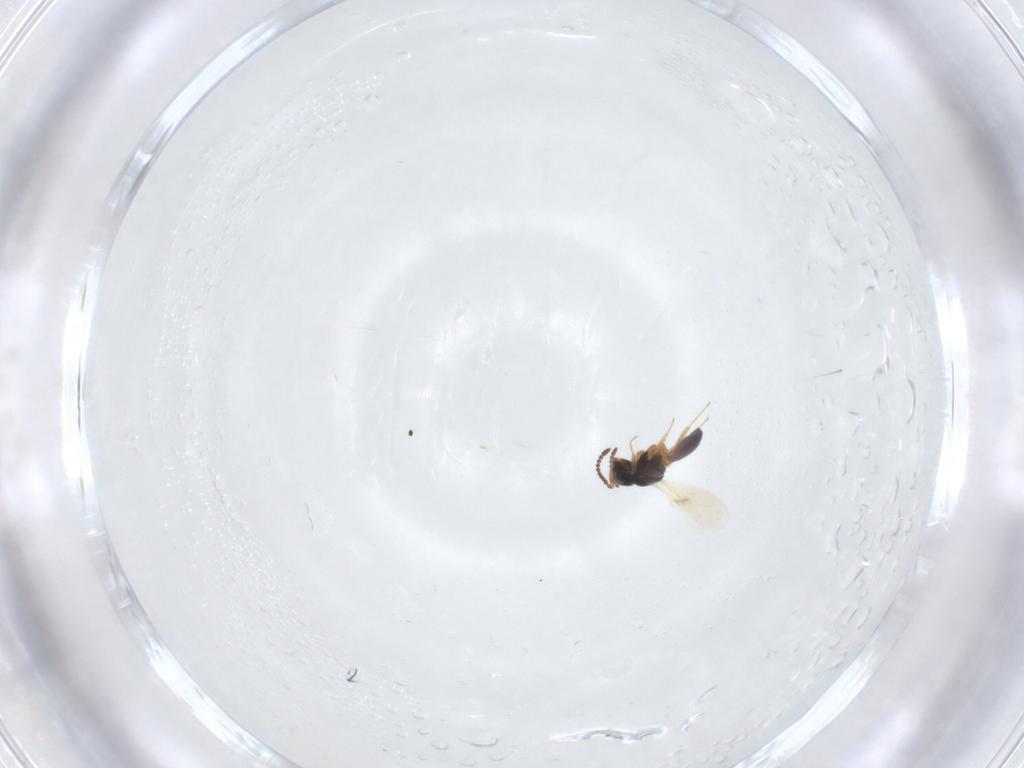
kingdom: Animalia
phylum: Arthropoda
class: Insecta
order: Hymenoptera
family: Scelionidae
